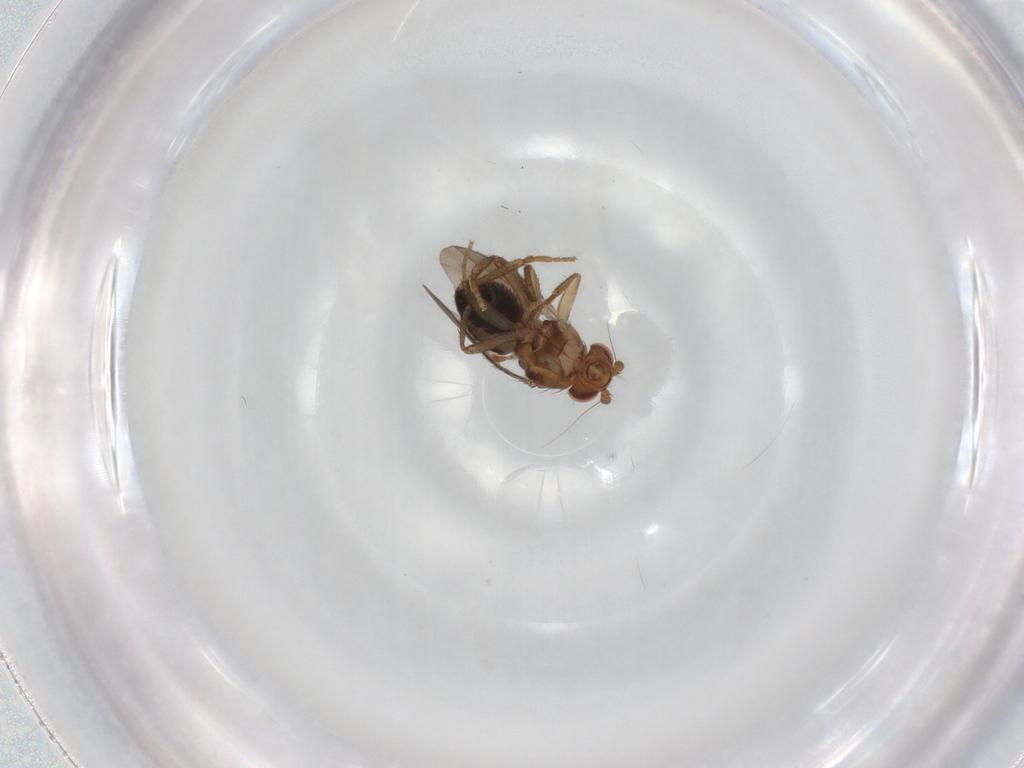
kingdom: Animalia
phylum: Arthropoda
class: Insecta
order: Diptera
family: Sphaeroceridae
